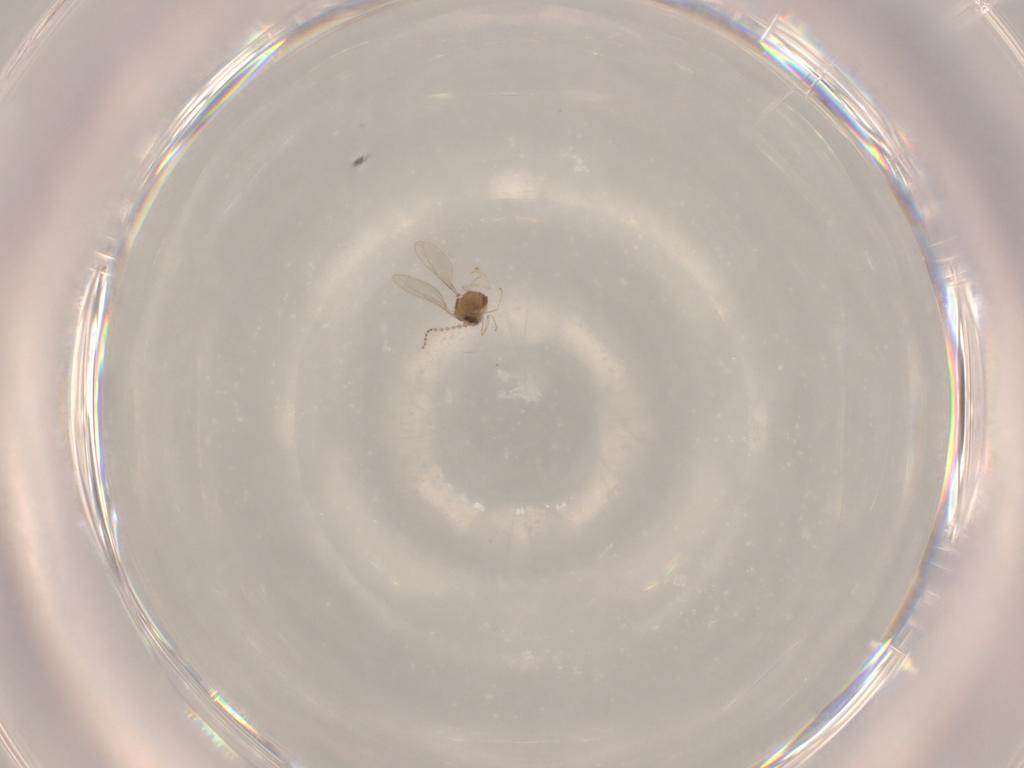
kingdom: Animalia
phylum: Arthropoda
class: Insecta
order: Diptera
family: Cecidomyiidae
